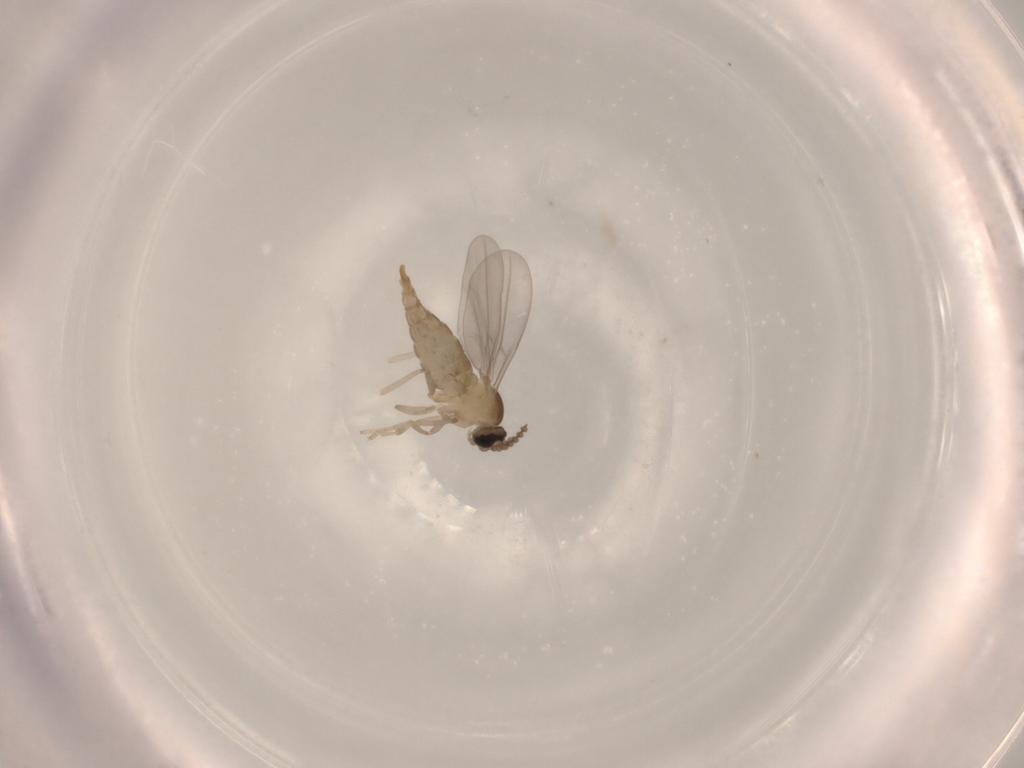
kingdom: Animalia
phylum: Arthropoda
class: Insecta
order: Diptera
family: Cecidomyiidae
